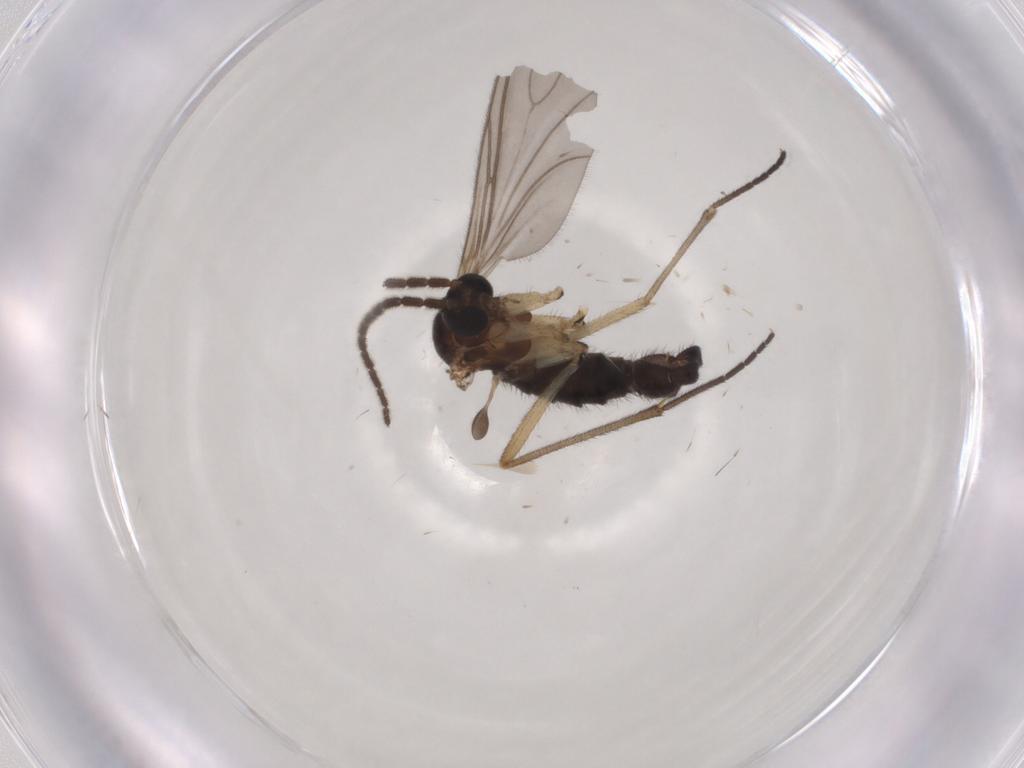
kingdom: Animalia
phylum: Arthropoda
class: Insecta
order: Diptera
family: Sciaridae
